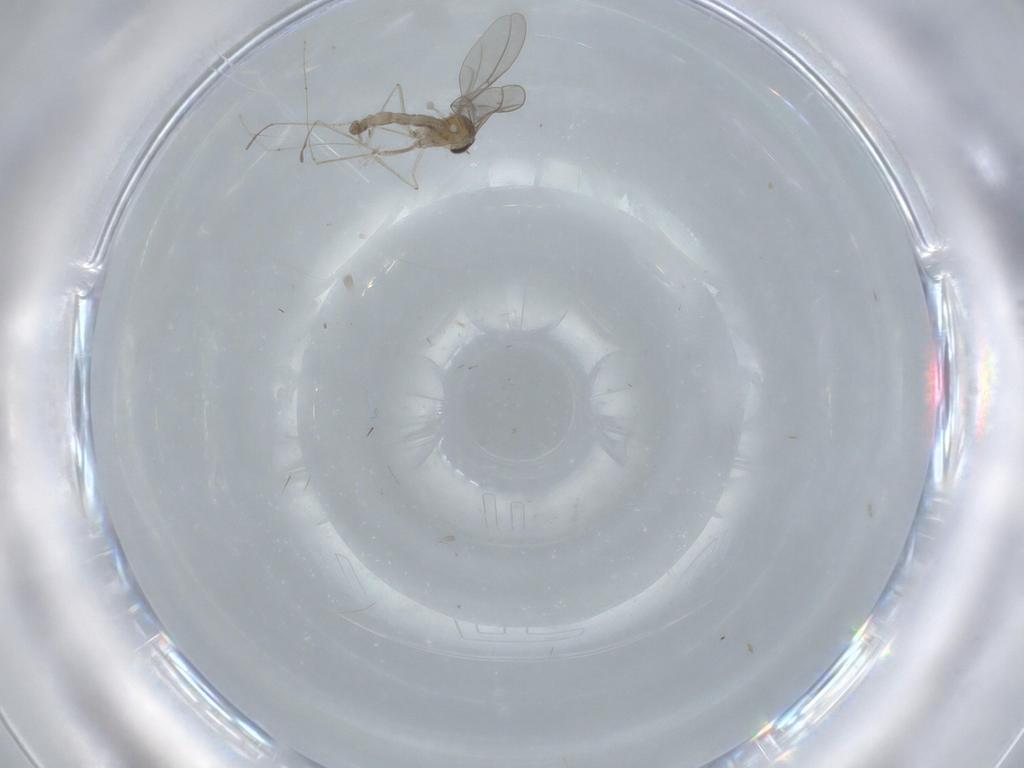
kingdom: Animalia
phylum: Arthropoda
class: Insecta
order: Diptera
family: Cecidomyiidae
